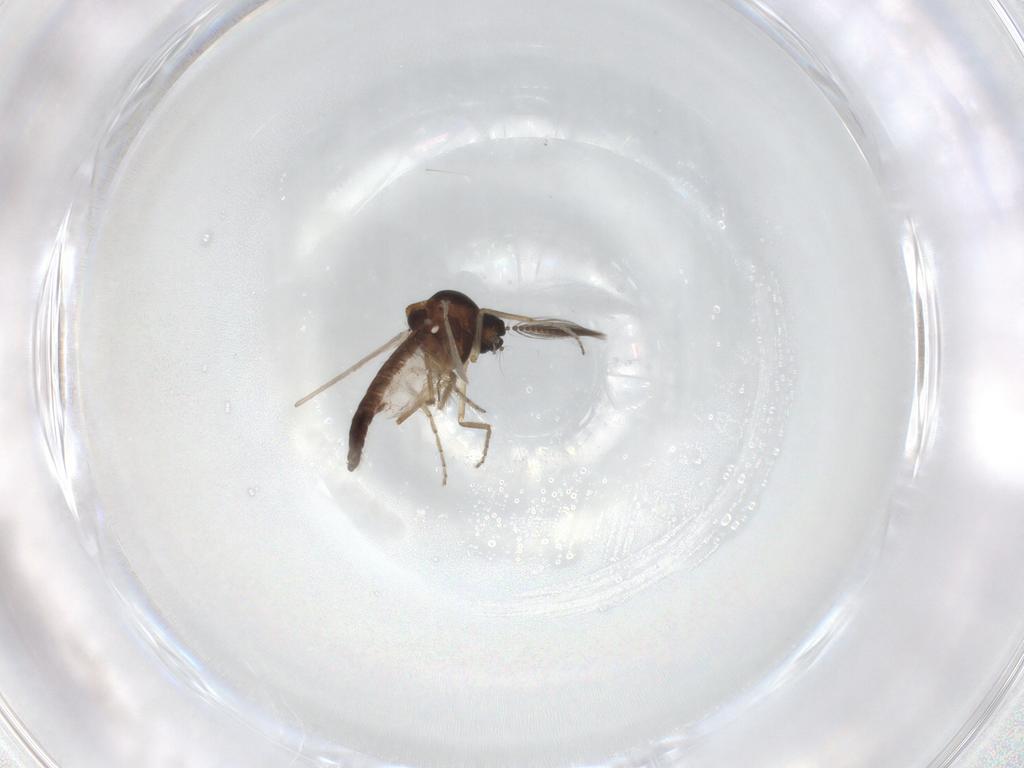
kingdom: Animalia
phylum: Arthropoda
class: Insecta
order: Diptera
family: Ceratopogonidae
